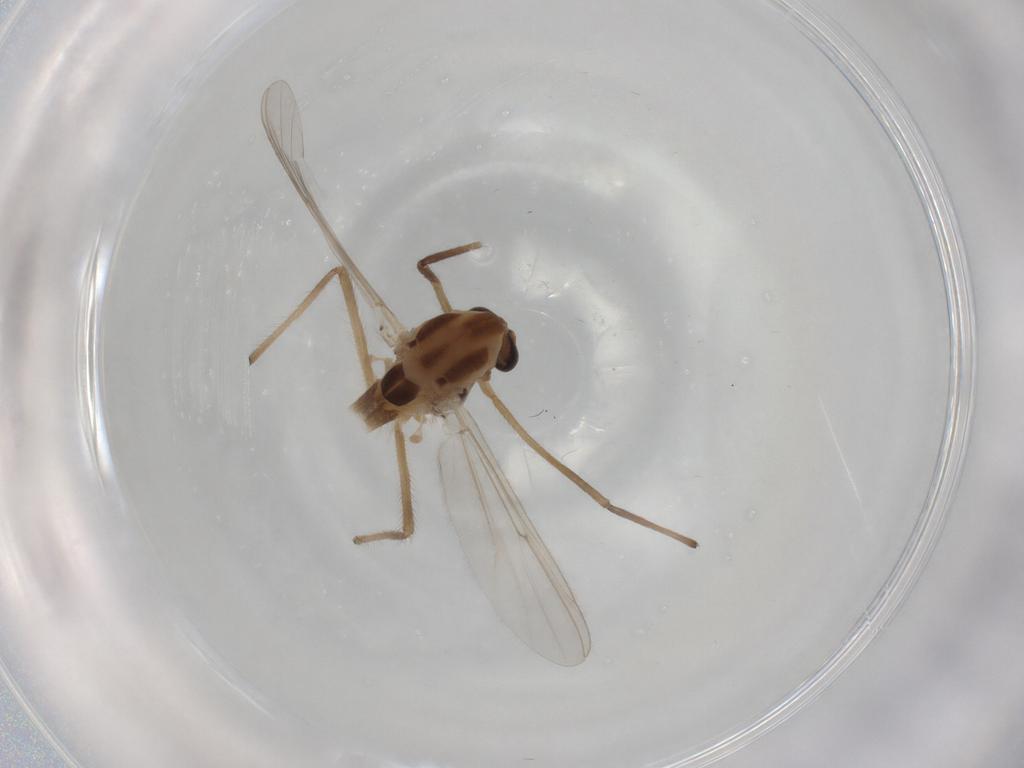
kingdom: Animalia
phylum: Arthropoda
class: Insecta
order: Diptera
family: Chironomidae
